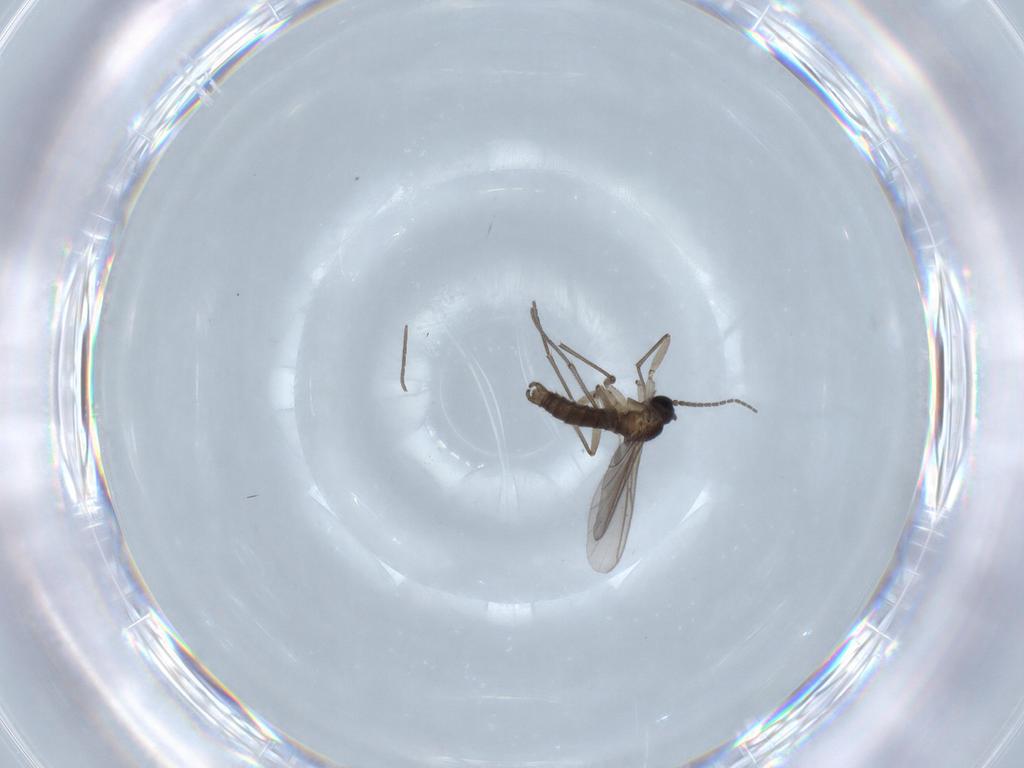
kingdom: Animalia
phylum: Arthropoda
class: Insecta
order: Diptera
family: Sciaridae
